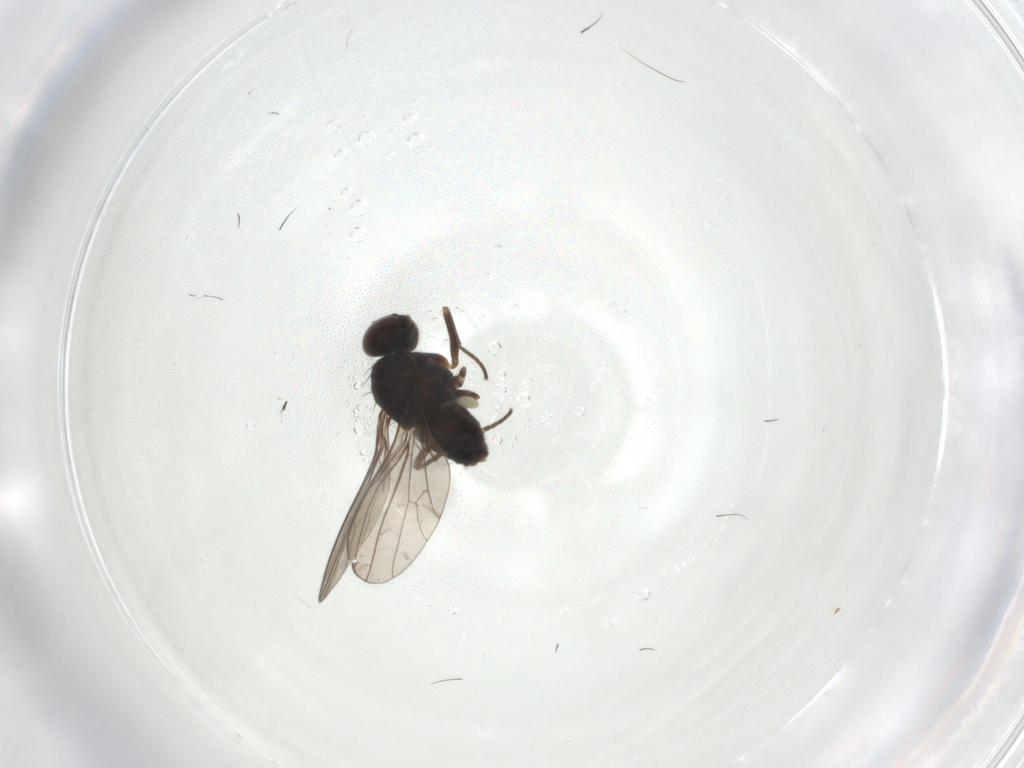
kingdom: Animalia
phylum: Arthropoda
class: Insecta
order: Diptera
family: Dolichopodidae
